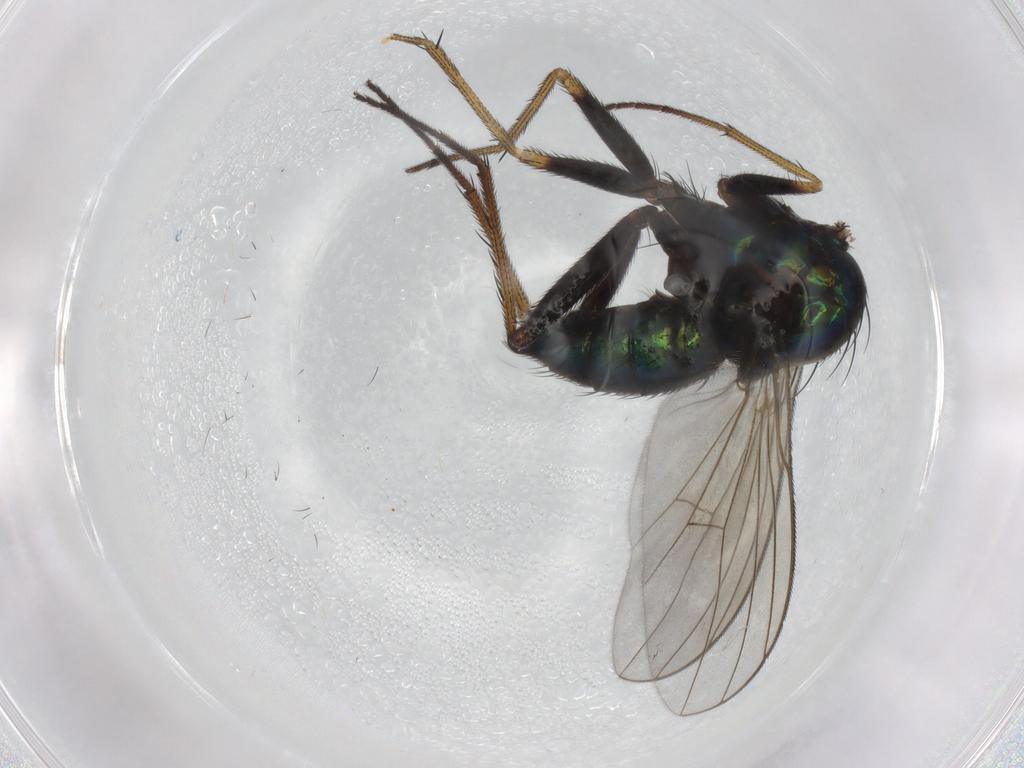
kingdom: Animalia
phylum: Arthropoda
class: Insecta
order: Diptera
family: Dolichopodidae
